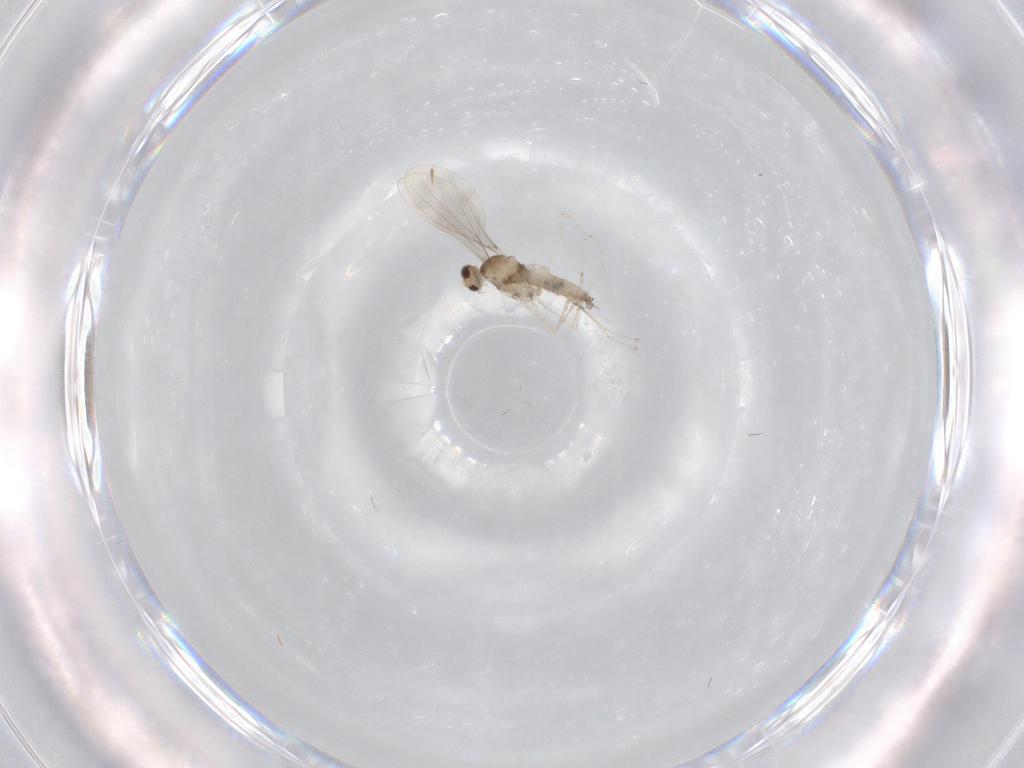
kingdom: Animalia
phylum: Arthropoda
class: Insecta
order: Diptera
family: Cecidomyiidae
